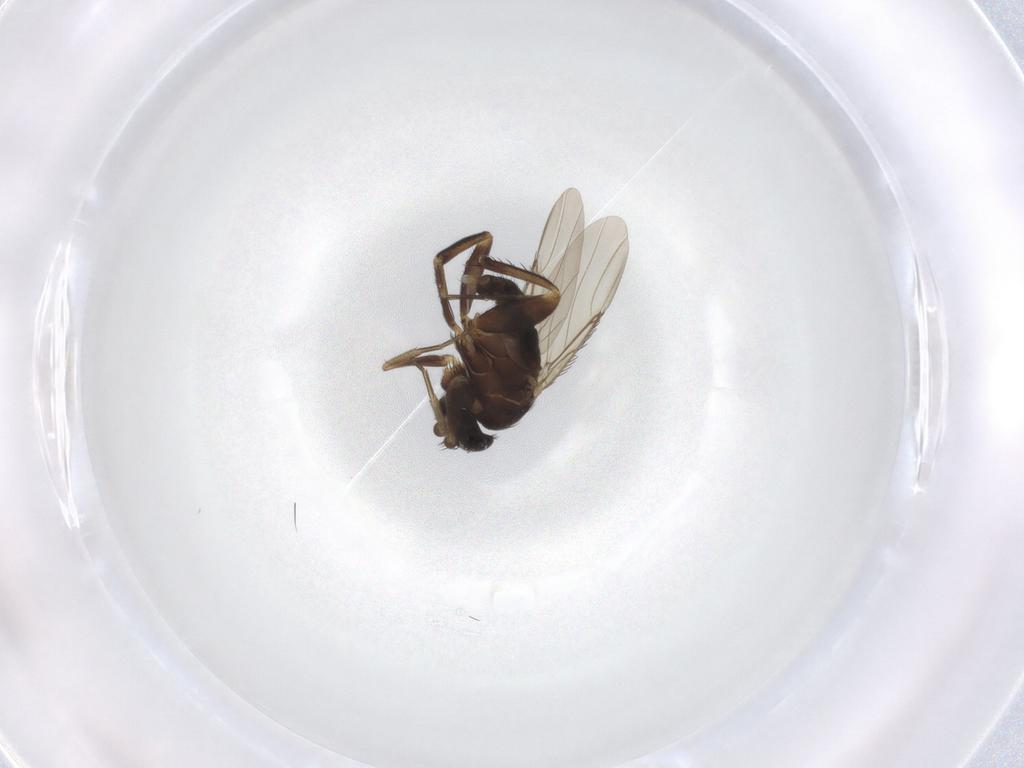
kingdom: Animalia
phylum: Arthropoda
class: Insecta
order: Diptera
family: Phoridae
